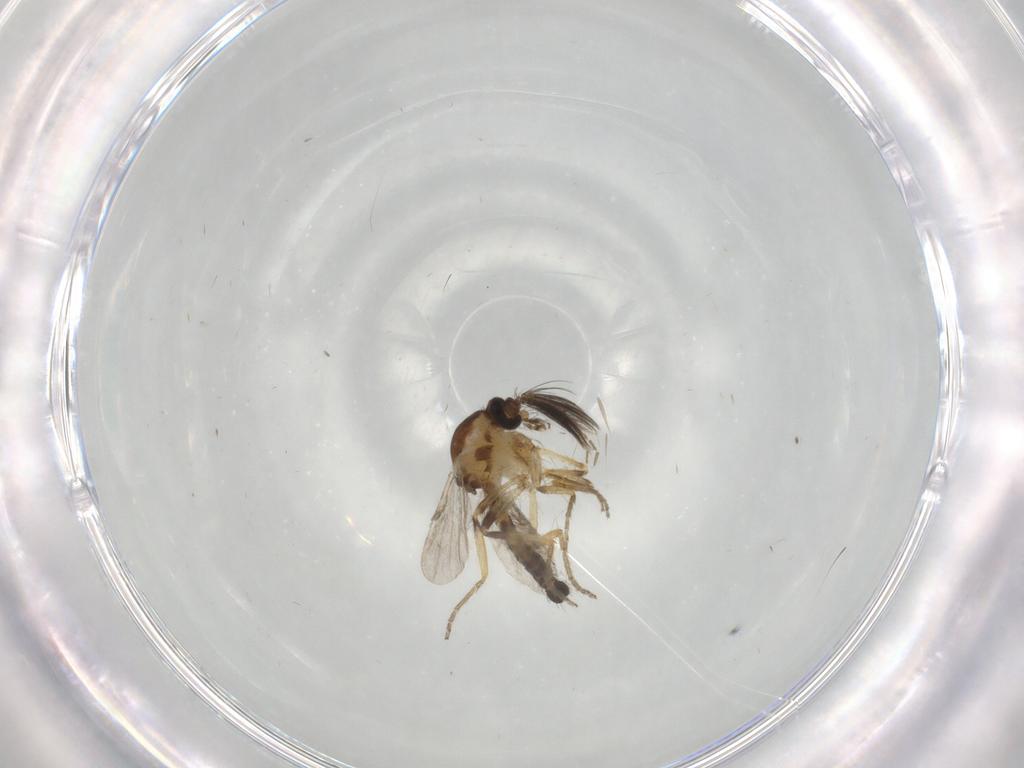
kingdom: Animalia
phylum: Arthropoda
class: Insecta
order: Diptera
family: Ceratopogonidae
